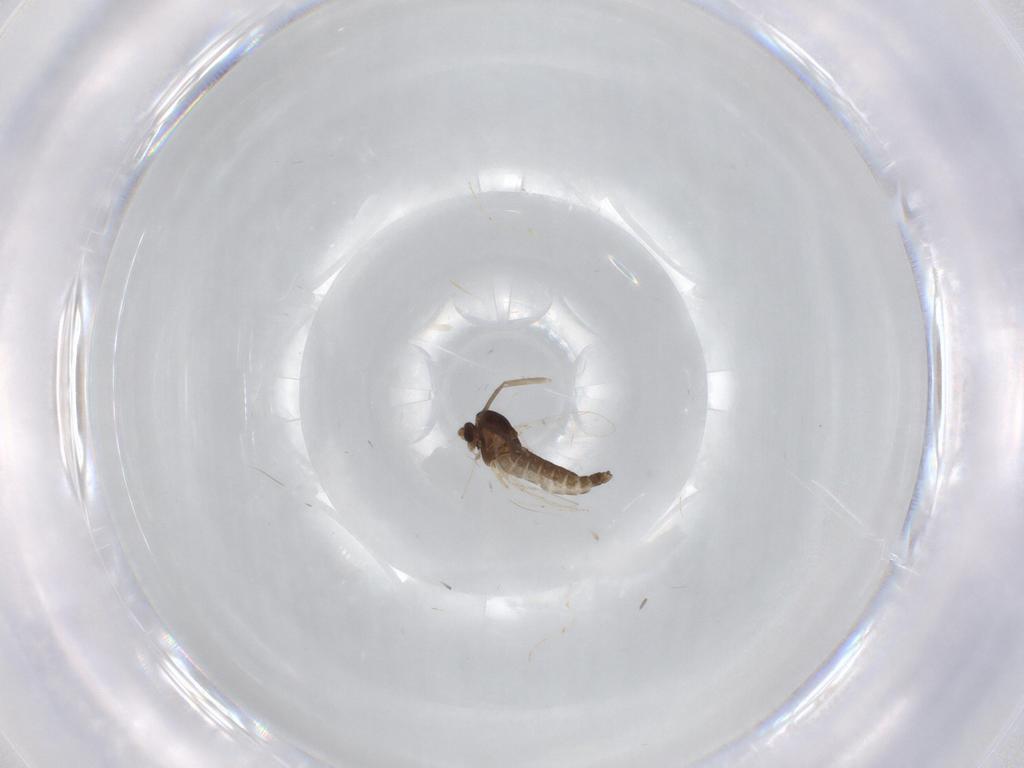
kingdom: Animalia
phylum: Arthropoda
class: Insecta
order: Diptera
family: Chironomidae
